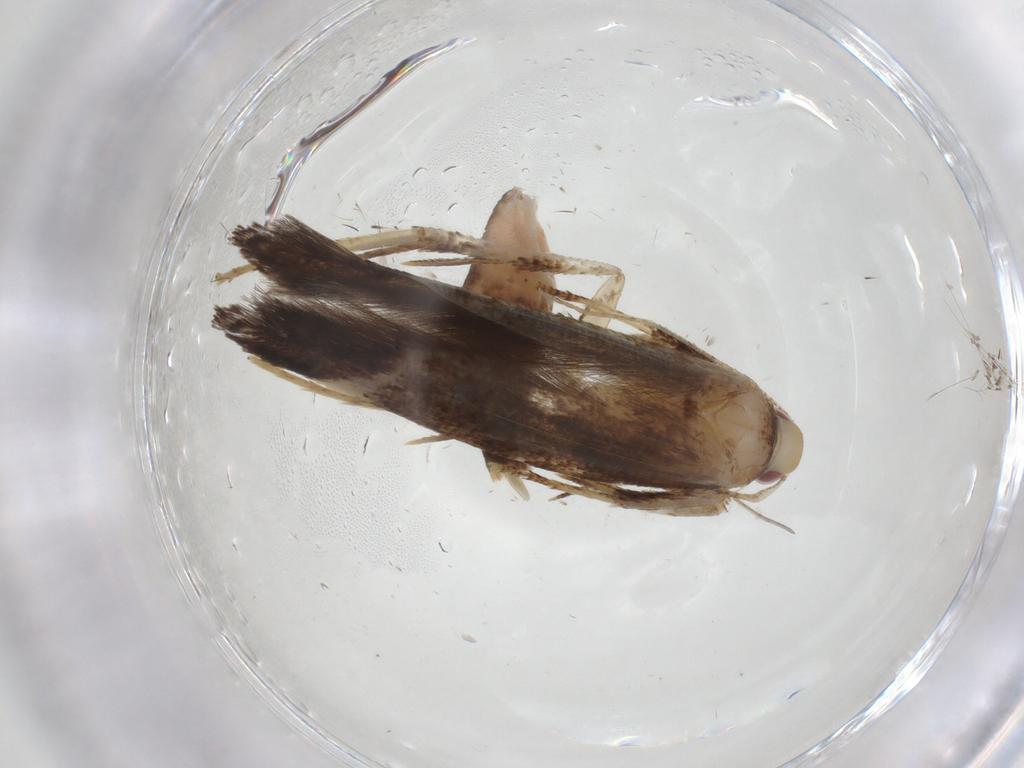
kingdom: Animalia
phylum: Arthropoda
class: Insecta
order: Lepidoptera
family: Cosmopterigidae
